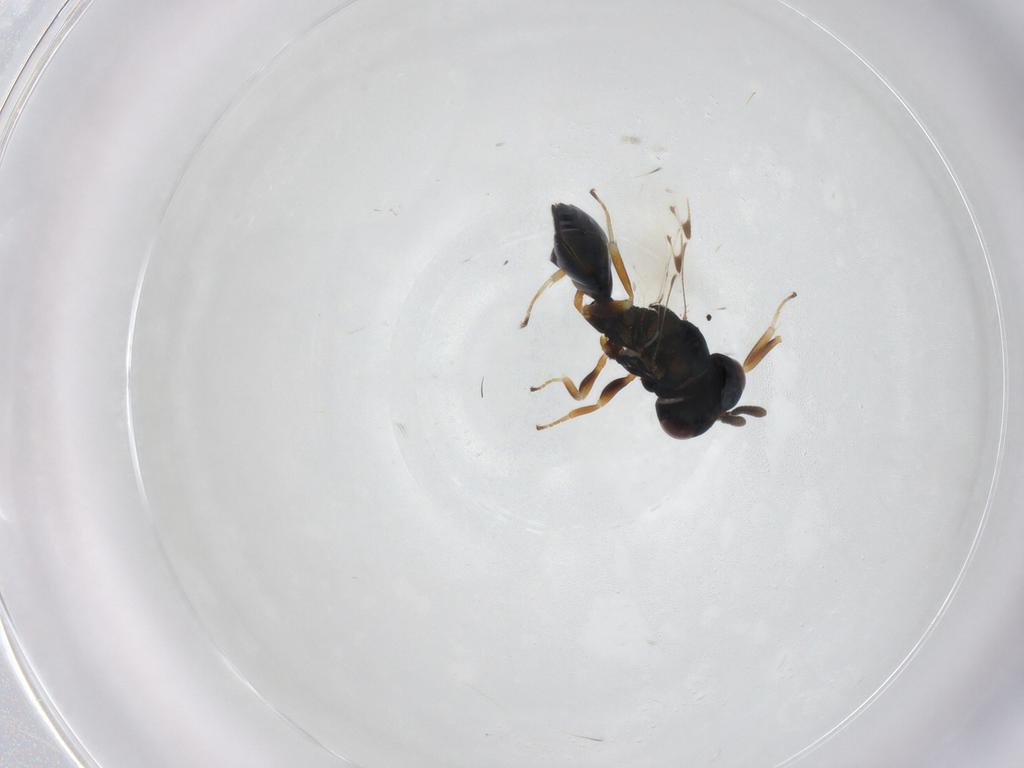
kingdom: Animalia
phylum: Arthropoda
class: Insecta
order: Hymenoptera
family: Pteromalidae
